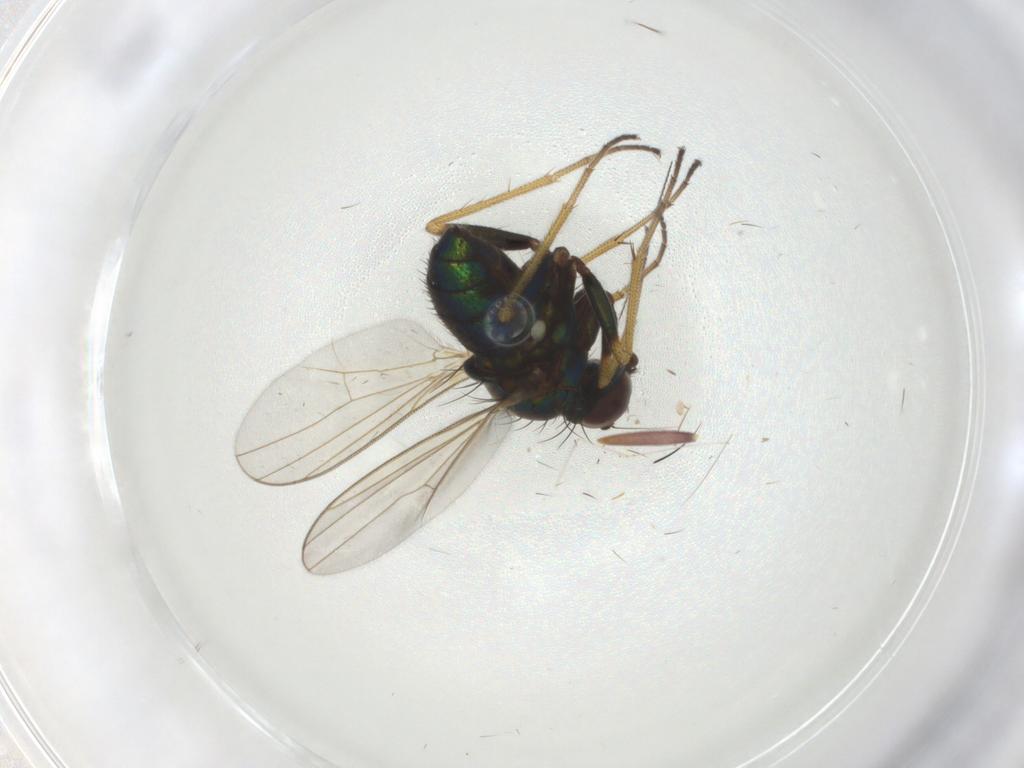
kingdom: Animalia
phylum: Arthropoda
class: Insecta
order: Diptera
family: Dolichopodidae
